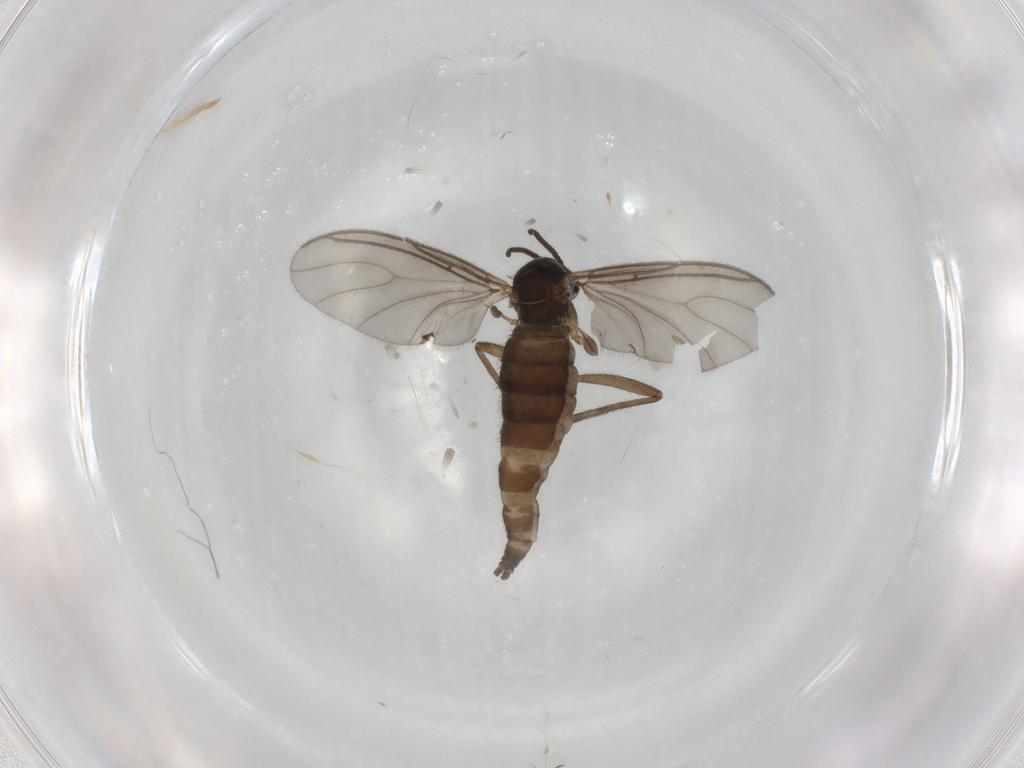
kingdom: Animalia
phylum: Arthropoda
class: Insecta
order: Diptera
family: Sciaridae
